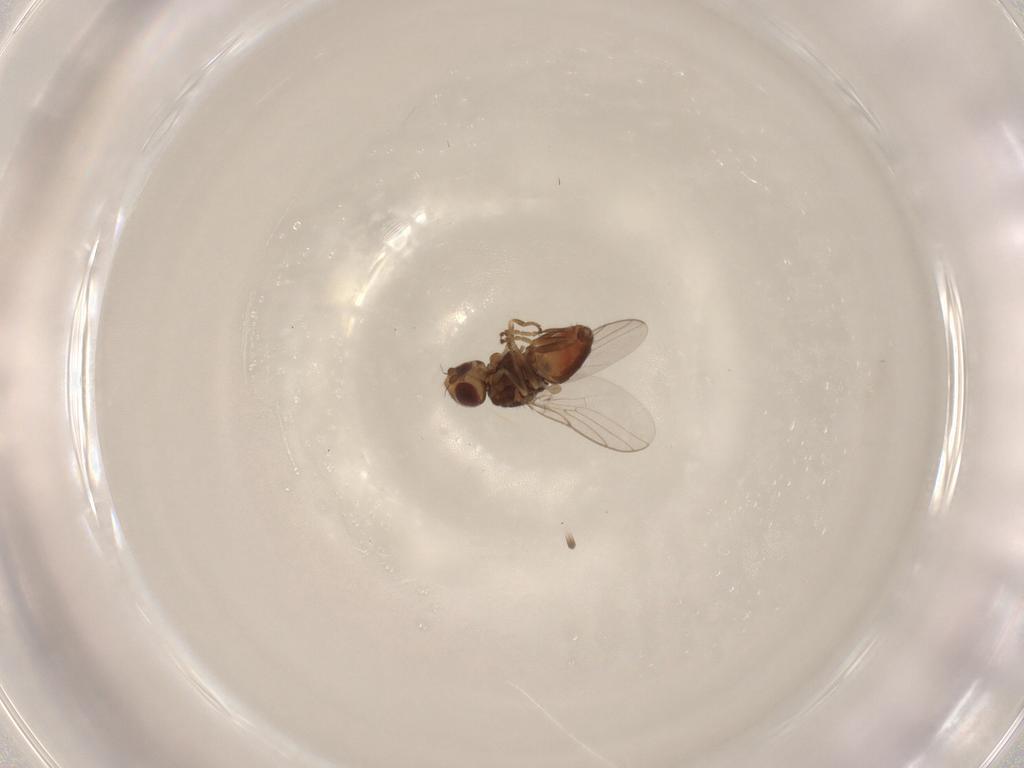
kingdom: Animalia
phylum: Arthropoda
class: Insecta
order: Diptera
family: Chloropidae
